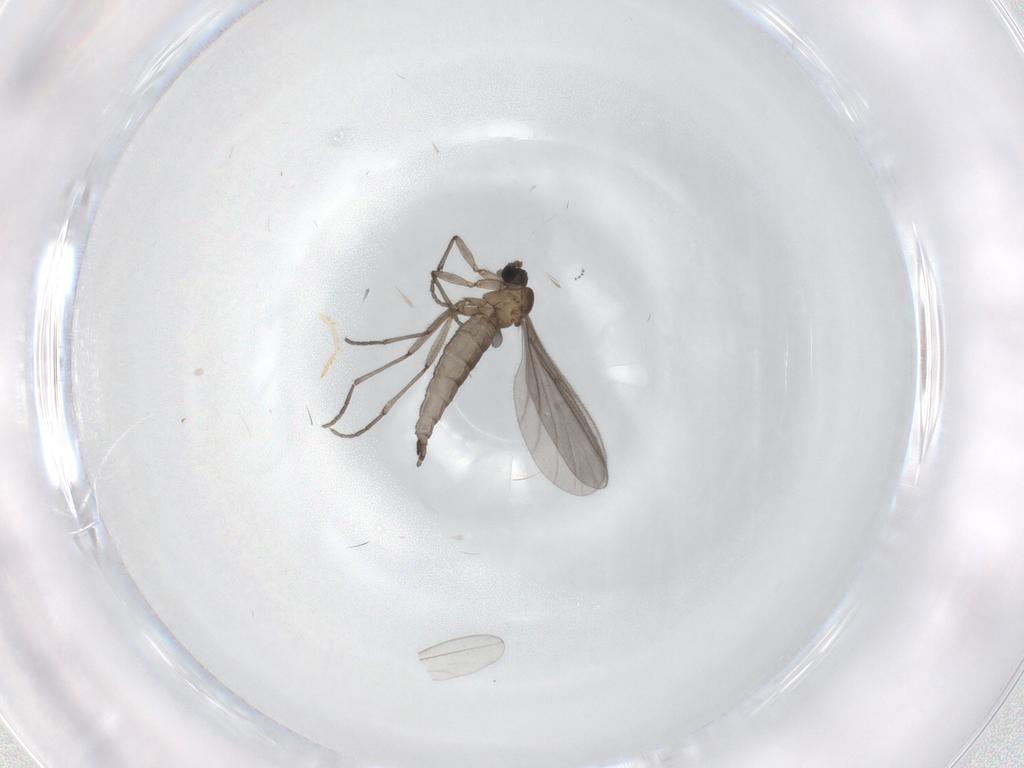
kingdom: Animalia
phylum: Arthropoda
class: Insecta
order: Diptera
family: Sciaridae
